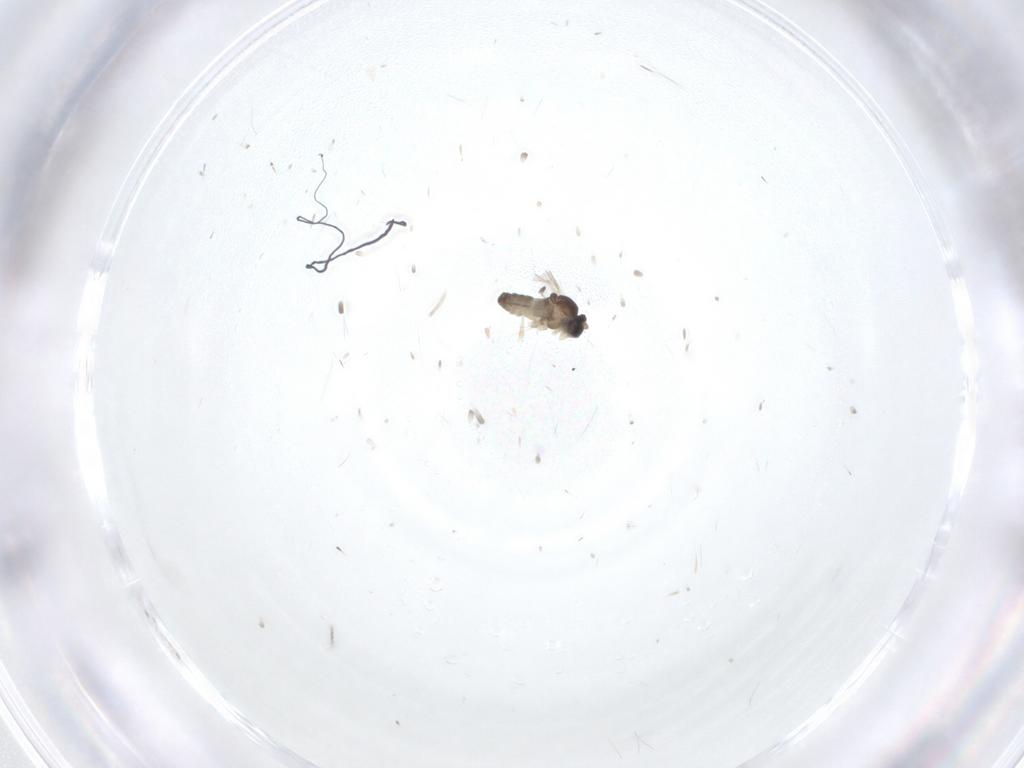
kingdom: Animalia
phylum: Arthropoda
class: Insecta
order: Diptera
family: Cecidomyiidae
